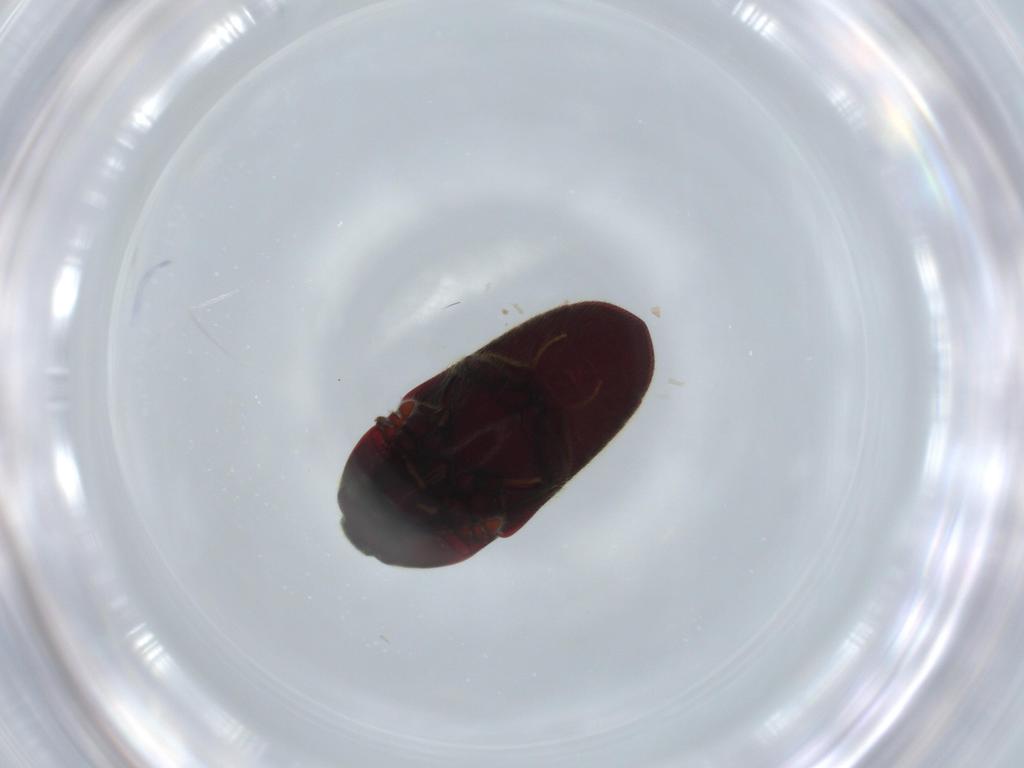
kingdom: Animalia
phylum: Arthropoda
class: Insecta
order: Coleoptera
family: Throscidae
